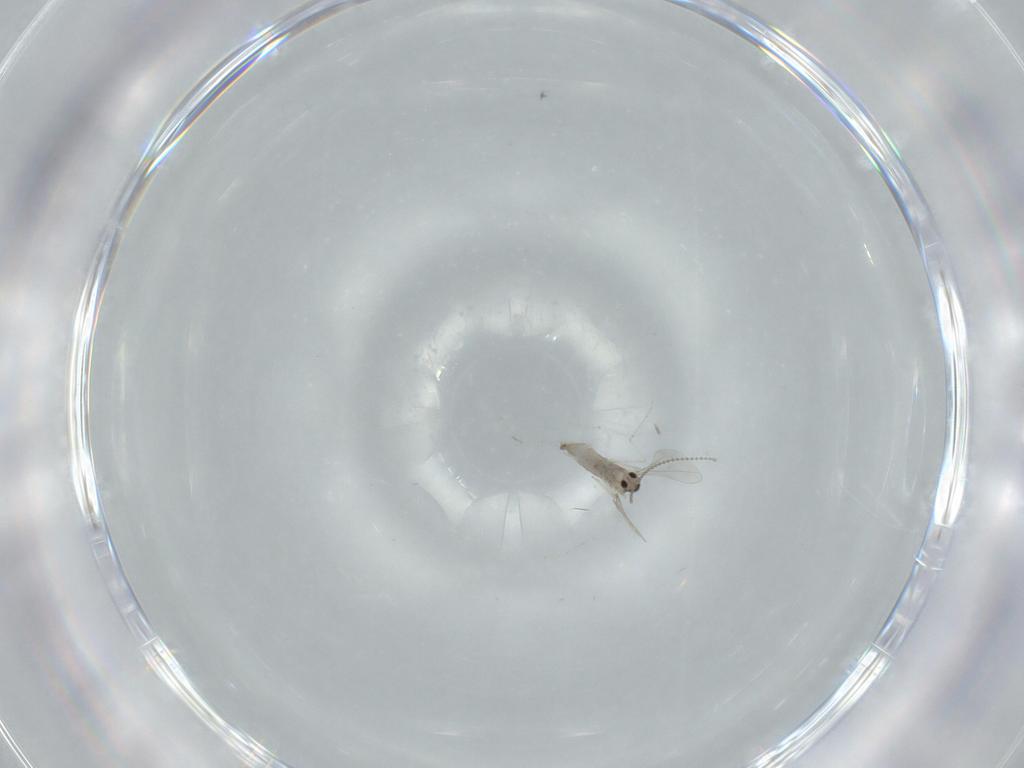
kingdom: Animalia
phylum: Arthropoda
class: Insecta
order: Diptera
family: Cecidomyiidae
